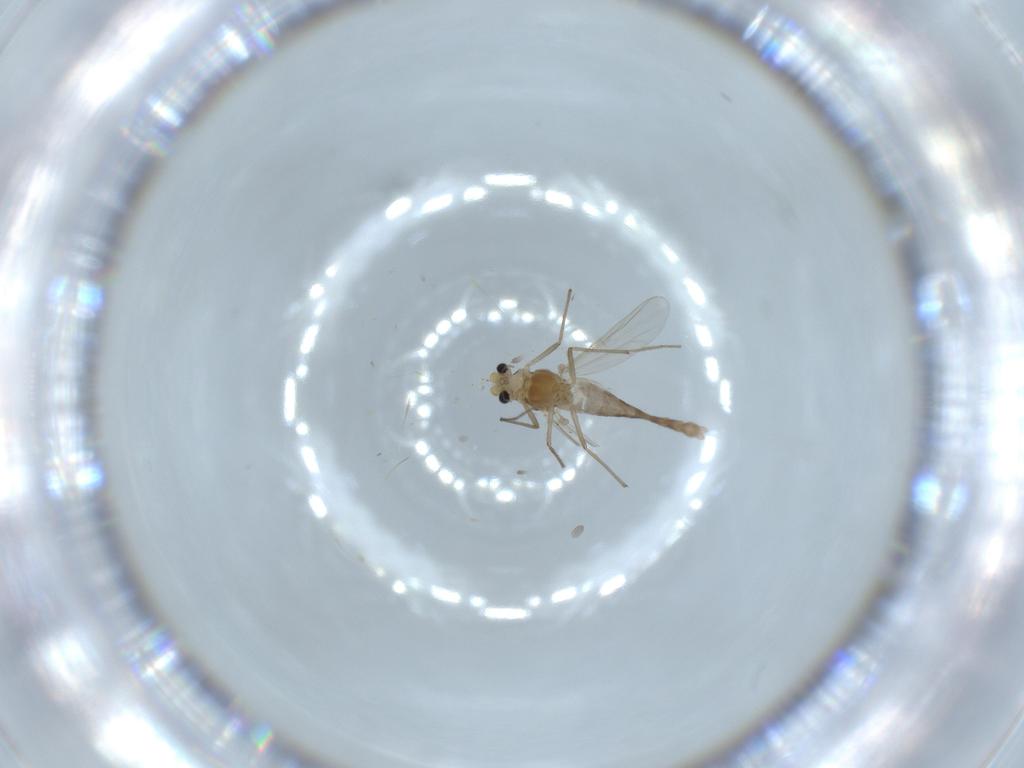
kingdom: Animalia
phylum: Arthropoda
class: Insecta
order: Diptera
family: Chironomidae
